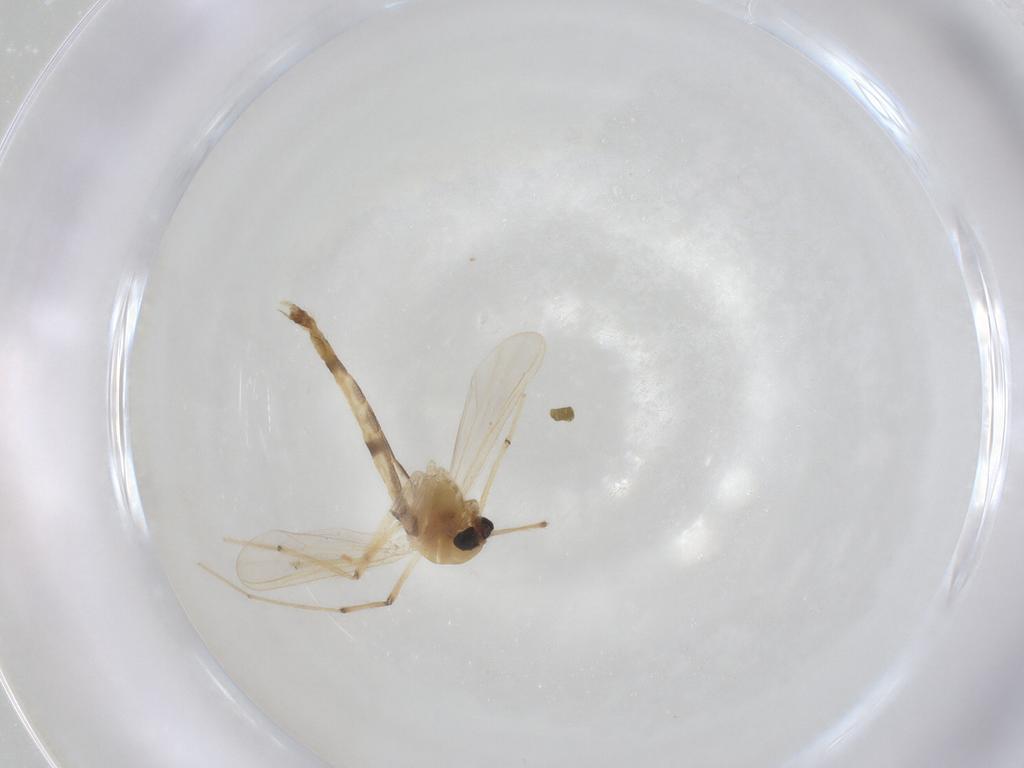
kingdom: Animalia
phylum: Arthropoda
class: Insecta
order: Diptera
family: Chironomidae
